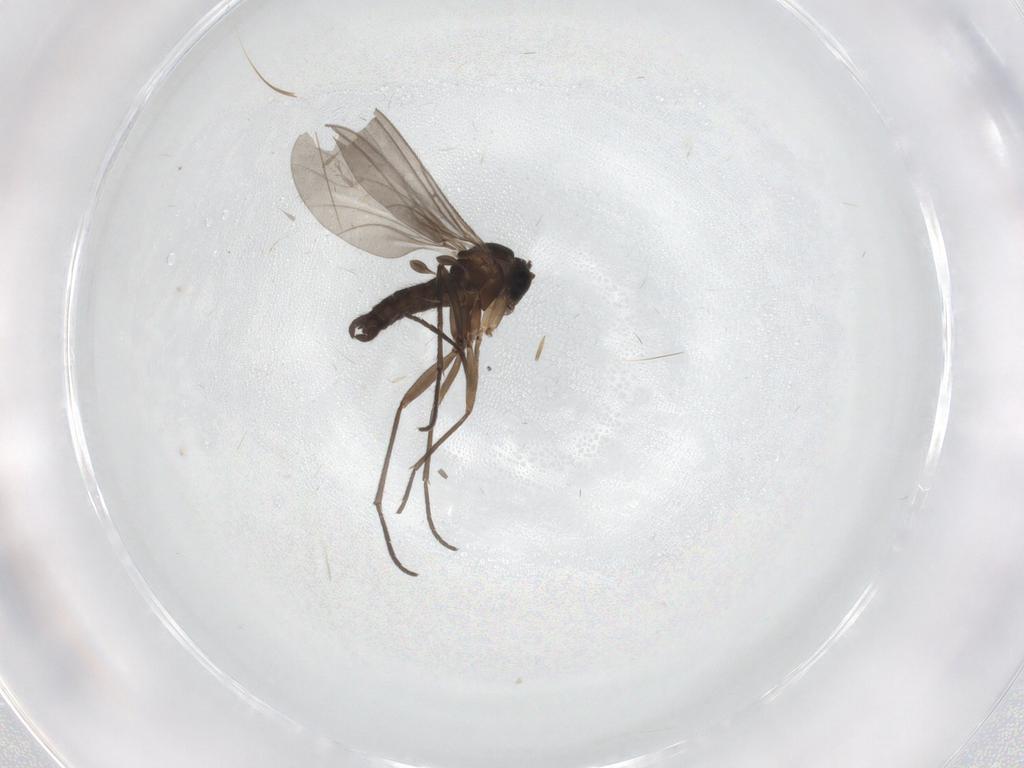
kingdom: Animalia
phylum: Arthropoda
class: Insecta
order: Diptera
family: Sciaridae
